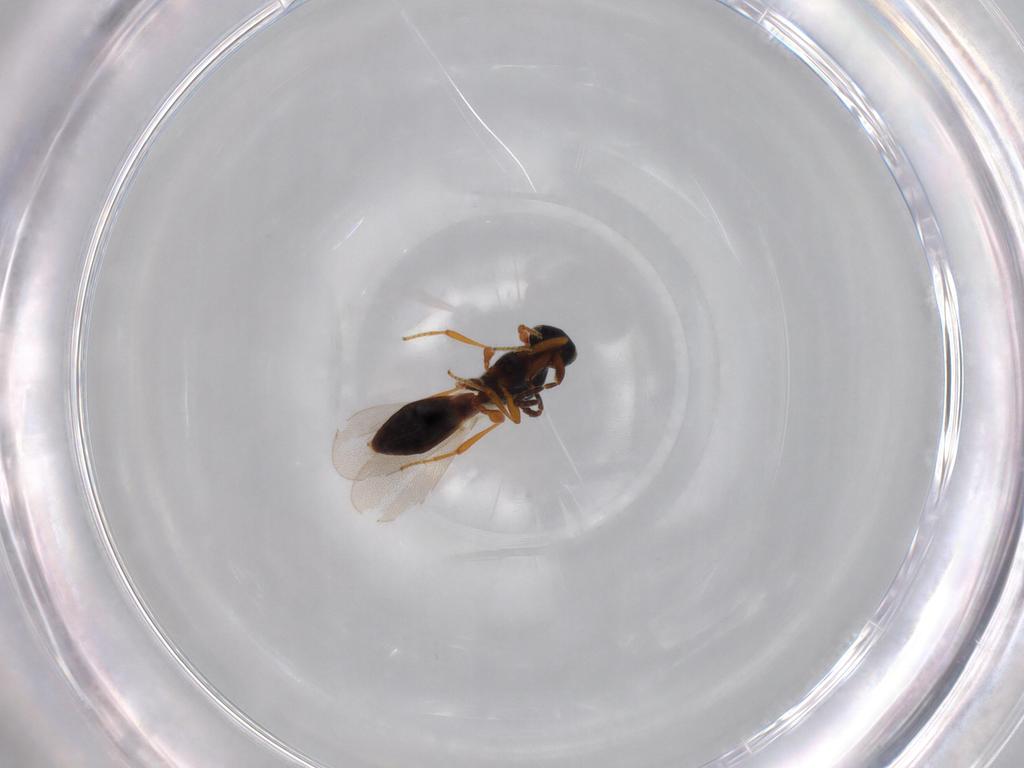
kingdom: Animalia
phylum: Arthropoda
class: Insecta
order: Hymenoptera
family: Platygastridae
